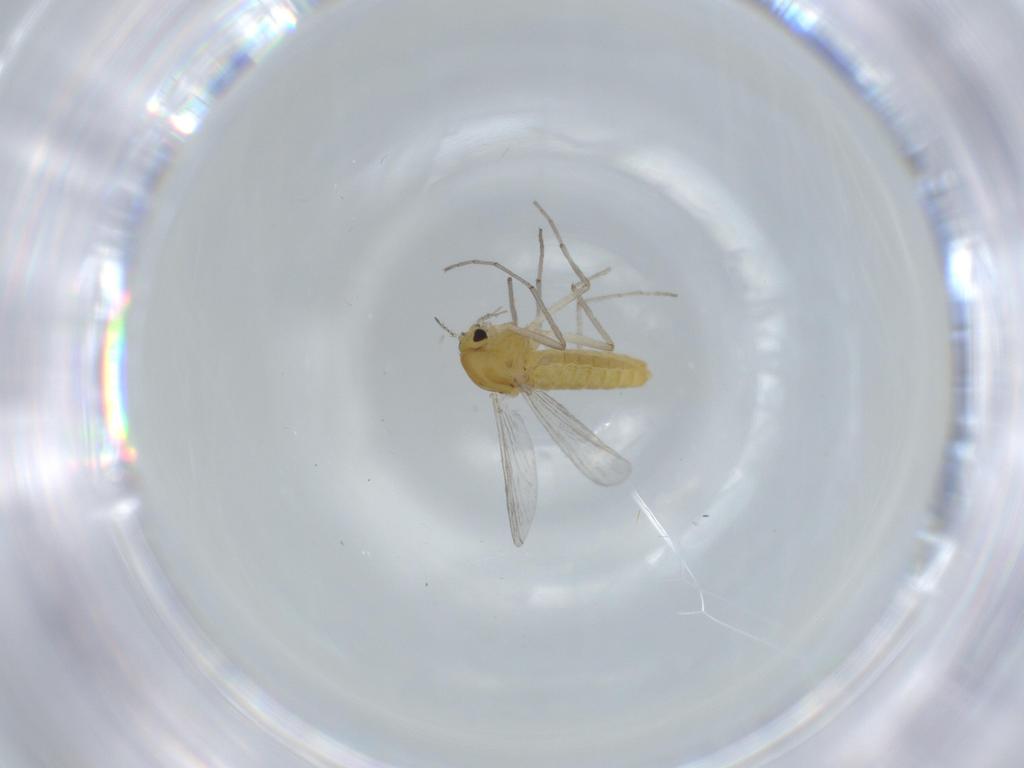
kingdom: Animalia
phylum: Arthropoda
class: Insecta
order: Diptera
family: Chironomidae
